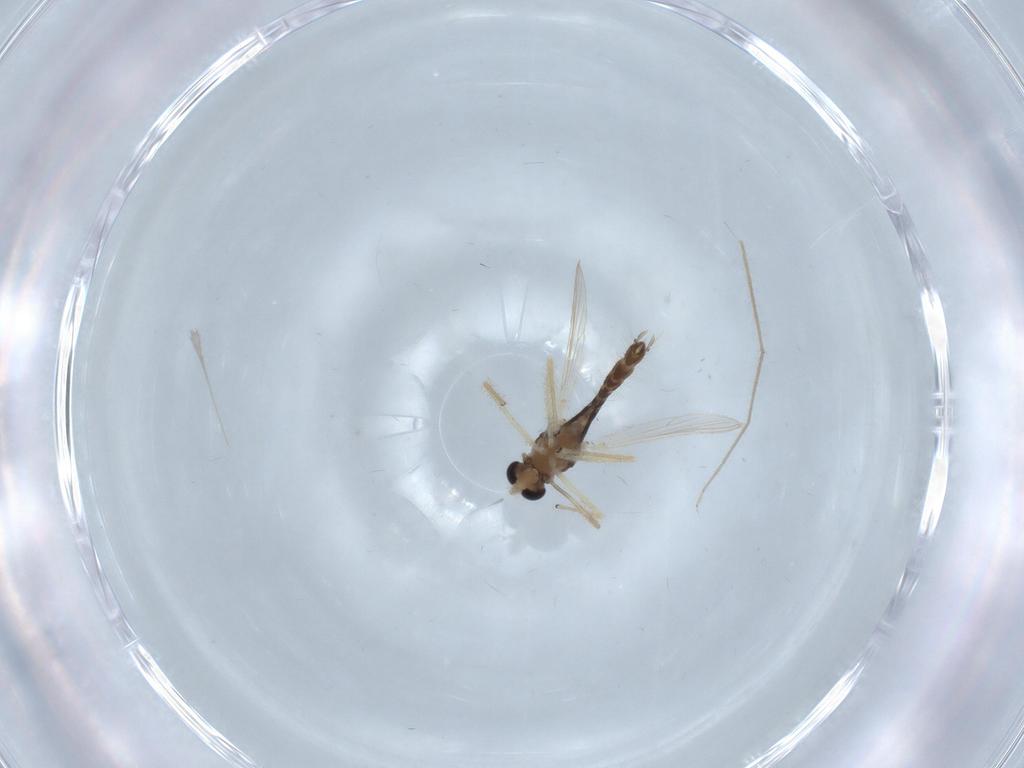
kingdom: Animalia
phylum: Arthropoda
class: Insecta
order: Diptera
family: Chironomidae
